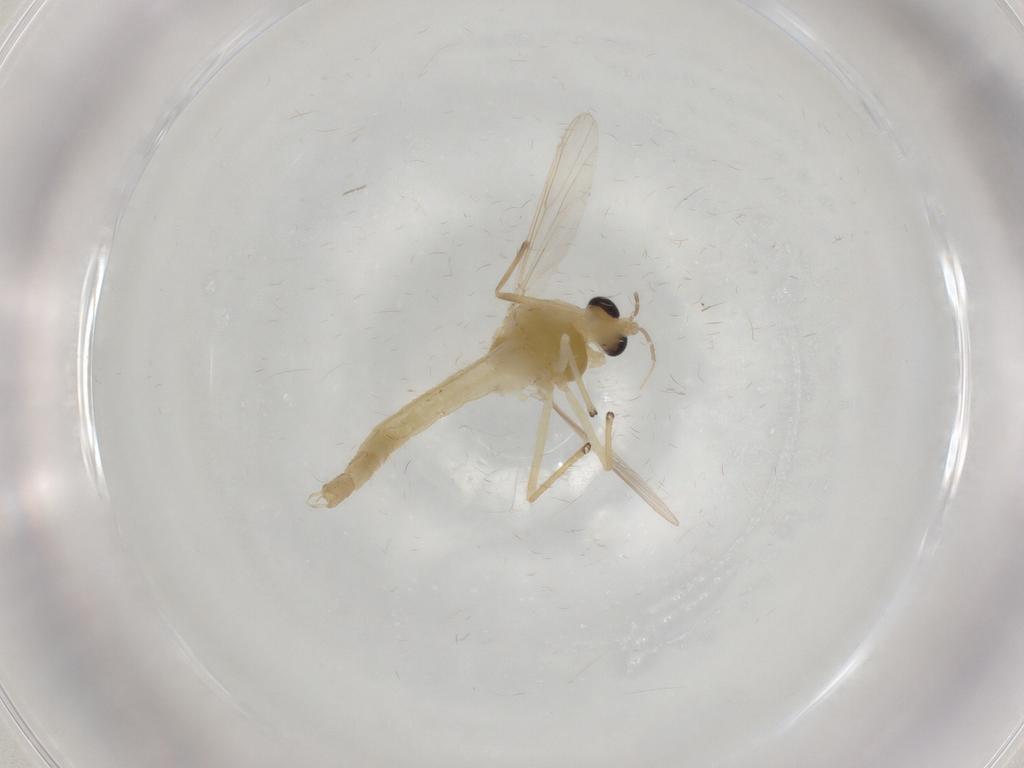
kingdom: Animalia
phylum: Arthropoda
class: Insecta
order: Diptera
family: Chironomidae
